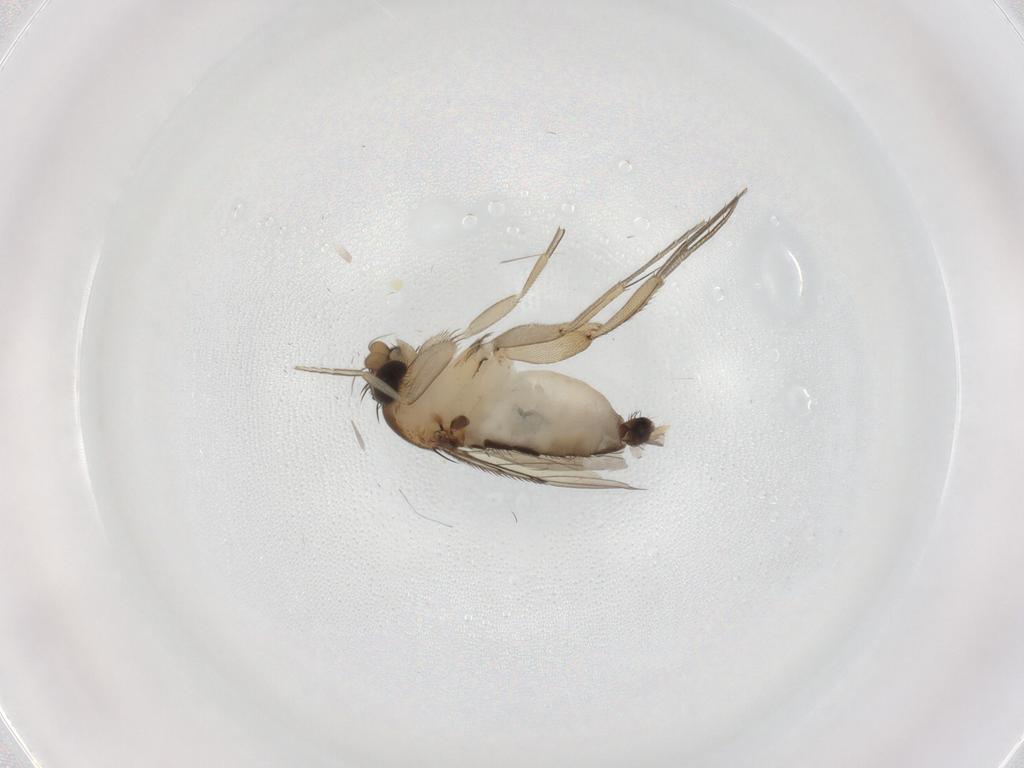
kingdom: Animalia
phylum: Arthropoda
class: Insecta
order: Diptera
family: Phoridae
